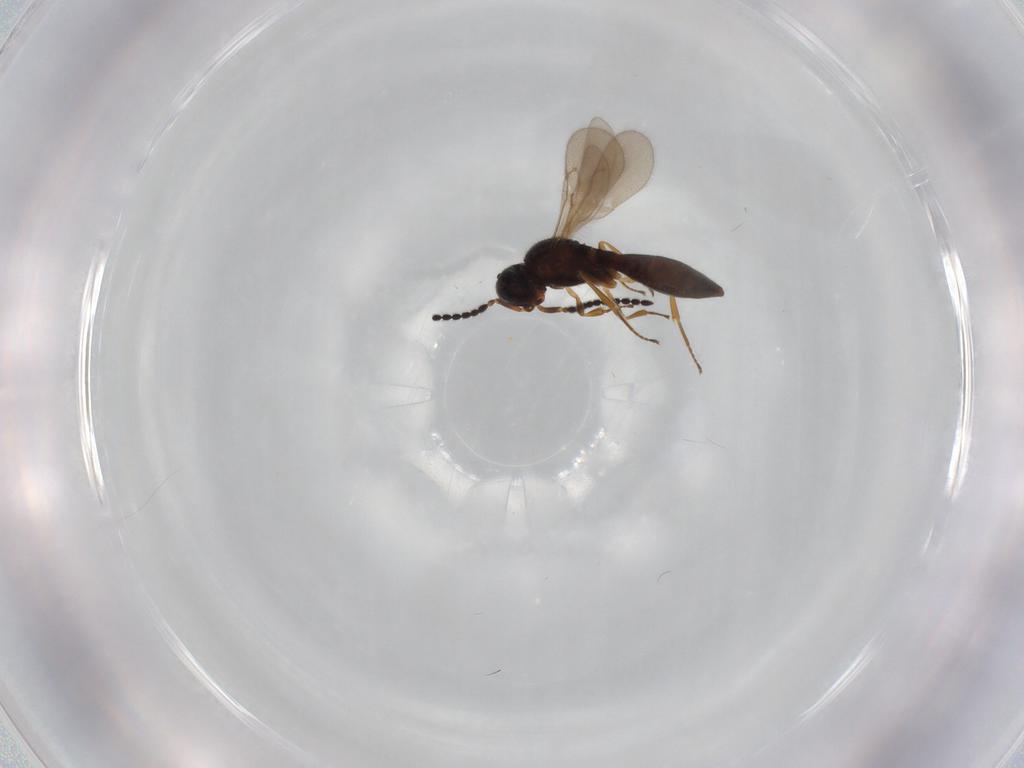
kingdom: Animalia
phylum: Arthropoda
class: Insecta
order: Hymenoptera
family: Scelionidae
